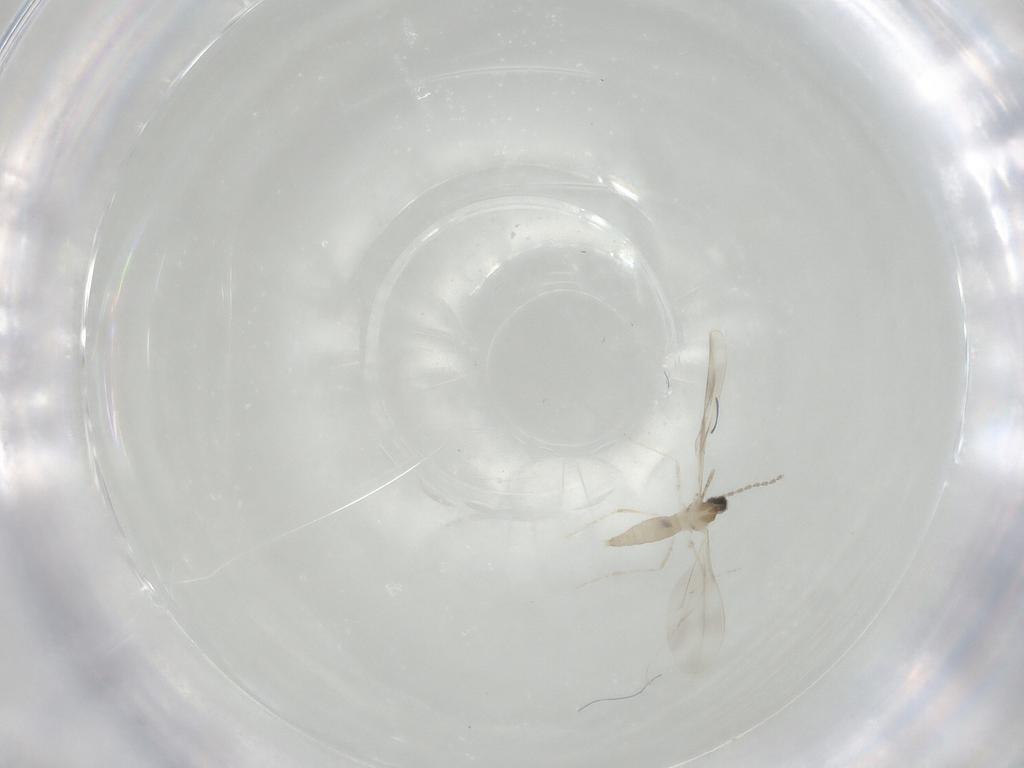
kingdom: Animalia
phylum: Arthropoda
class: Insecta
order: Diptera
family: Cecidomyiidae
